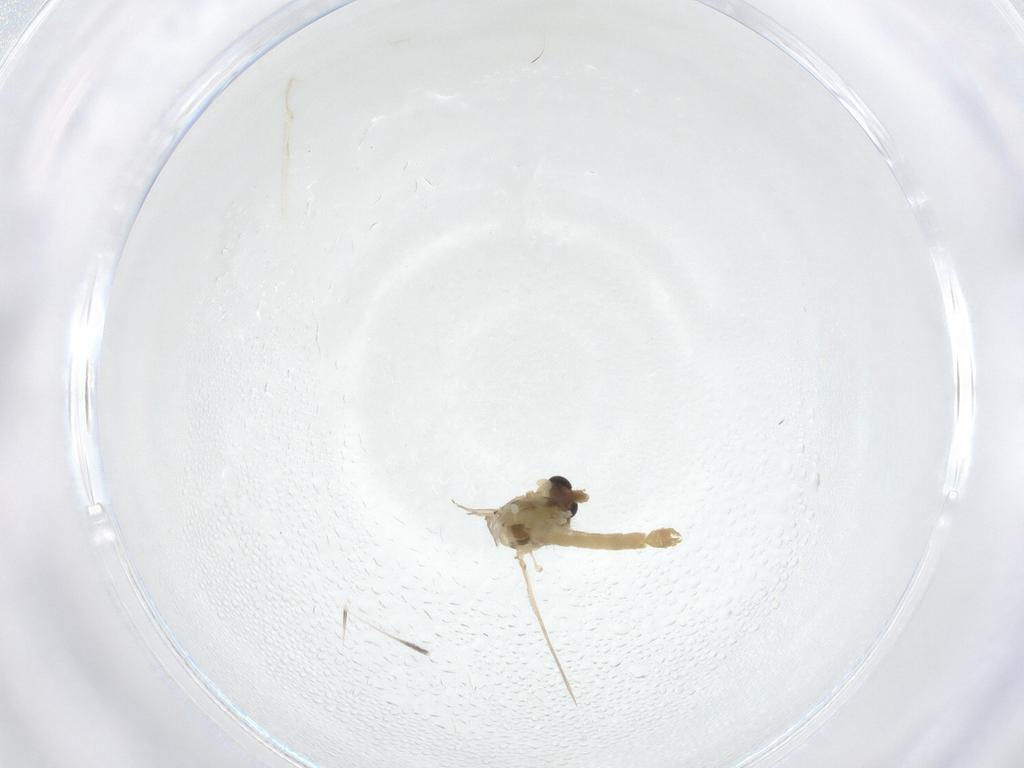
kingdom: Animalia
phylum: Arthropoda
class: Insecta
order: Diptera
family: Chironomidae
